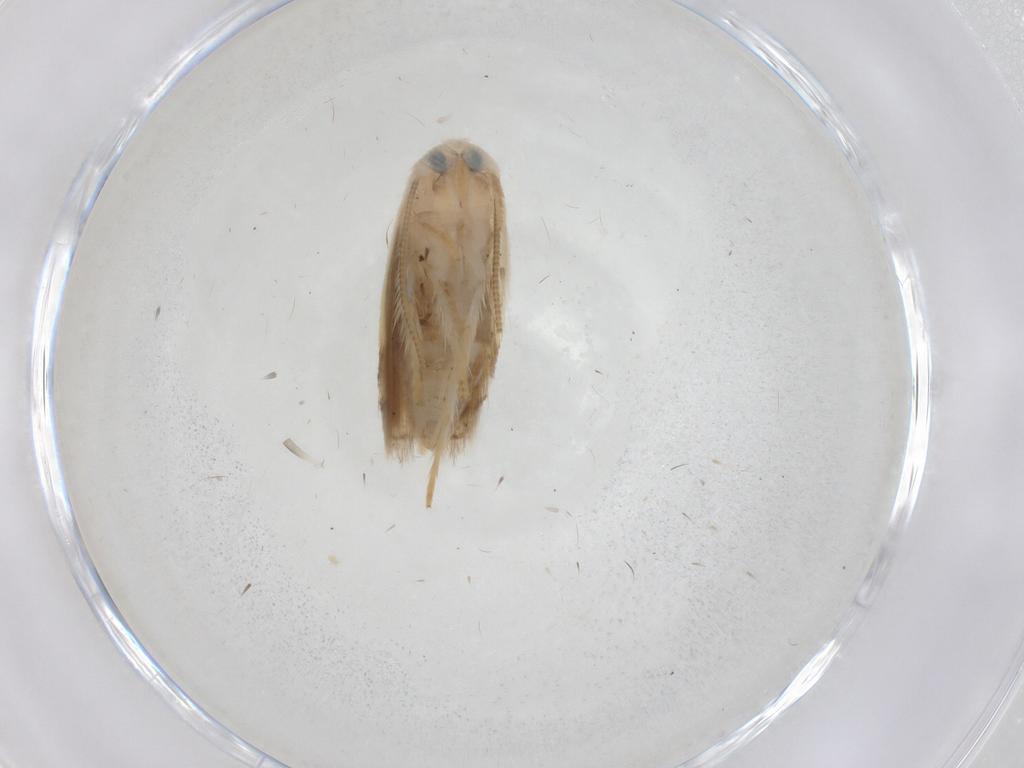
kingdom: Animalia
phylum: Arthropoda
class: Insecta
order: Lepidoptera
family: Opostegidae
